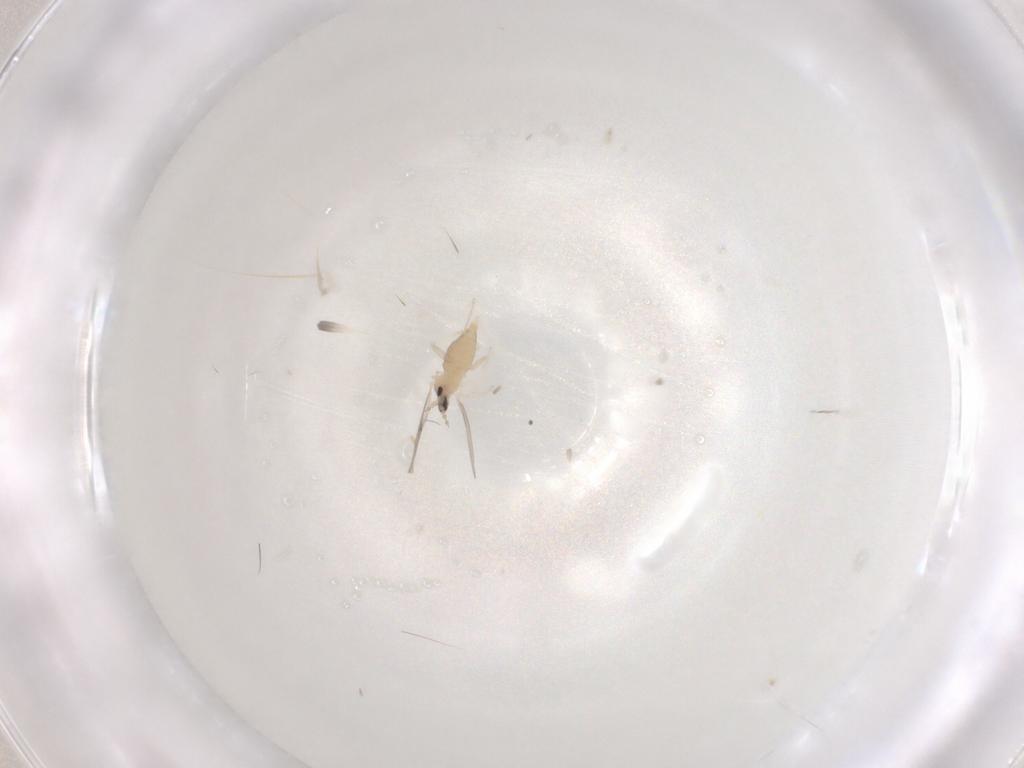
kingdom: Animalia
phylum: Arthropoda
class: Insecta
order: Diptera
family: Cecidomyiidae
